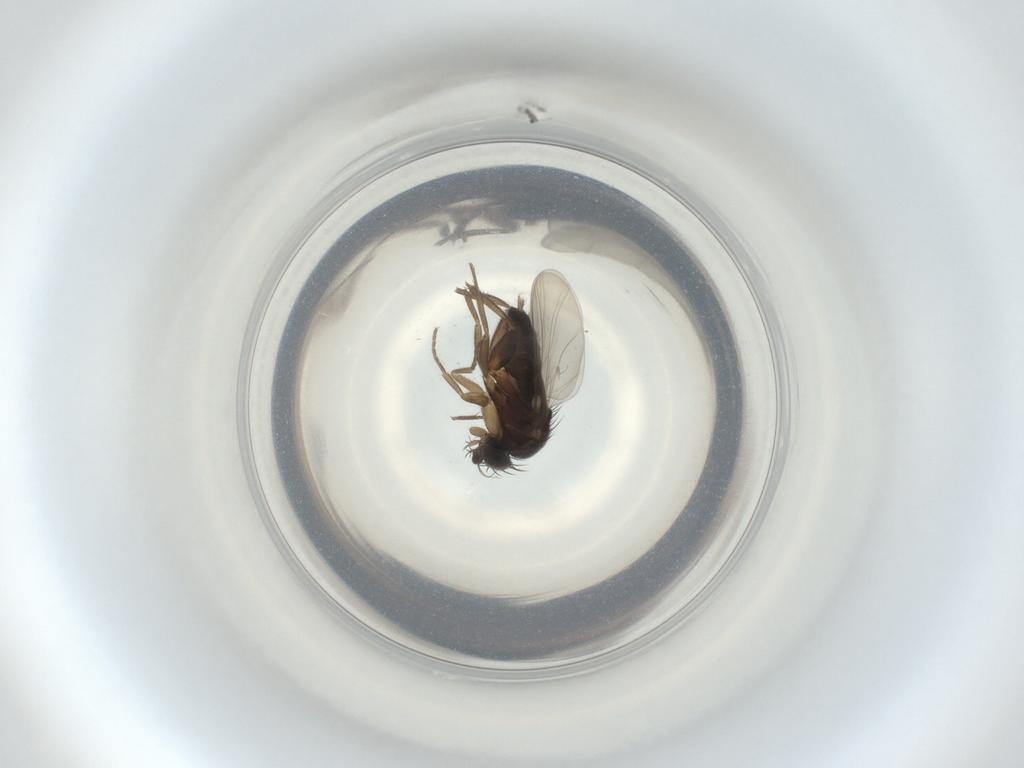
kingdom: Animalia
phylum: Arthropoda
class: Insecta
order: Diptera
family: Phoridae
